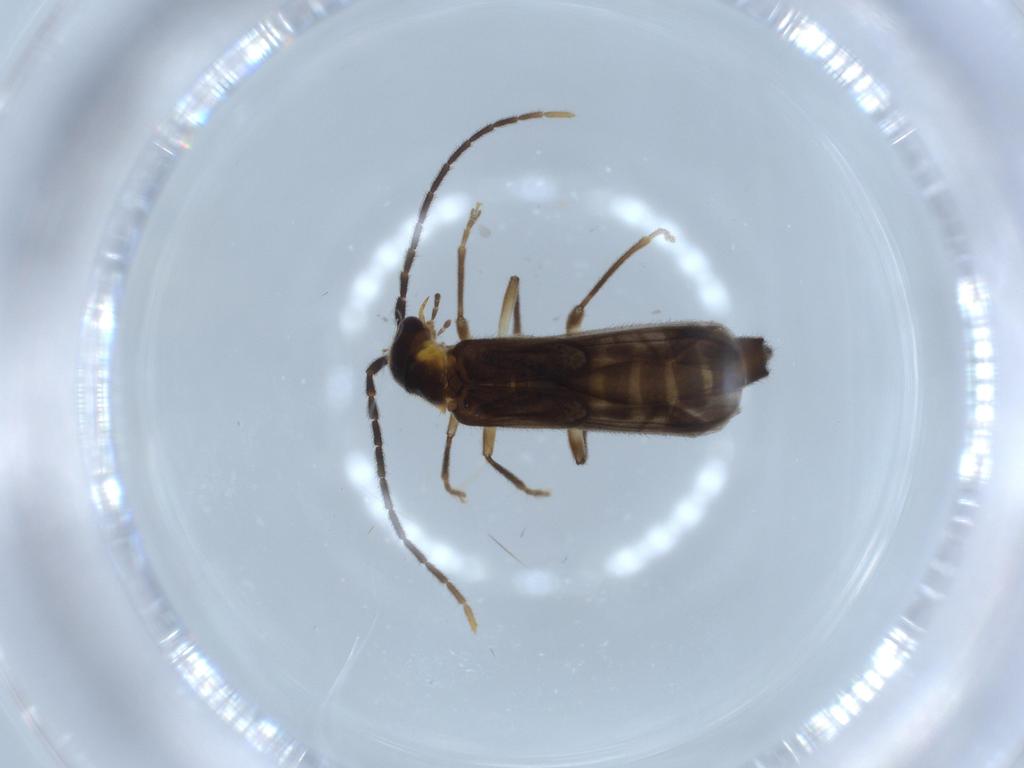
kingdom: Animalia
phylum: Arthropoda
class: Insecta
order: Coleoptera
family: Cantharidae
